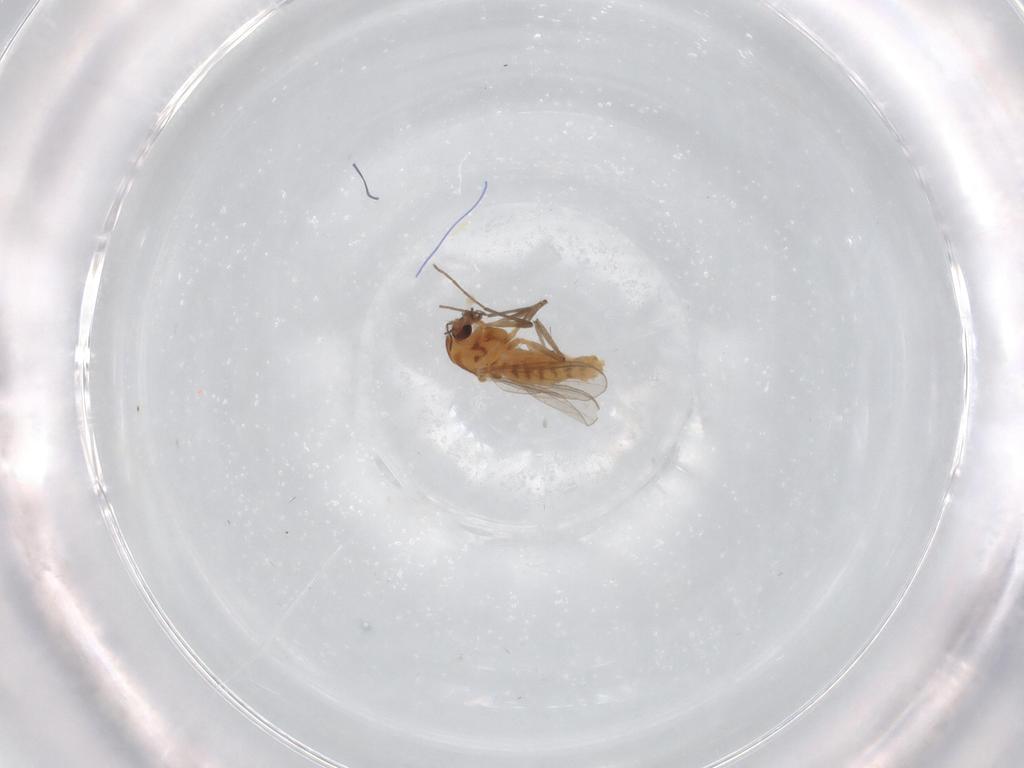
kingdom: Animalia
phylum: Arthropoda
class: Insecta
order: Diptera
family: Chironomidae
